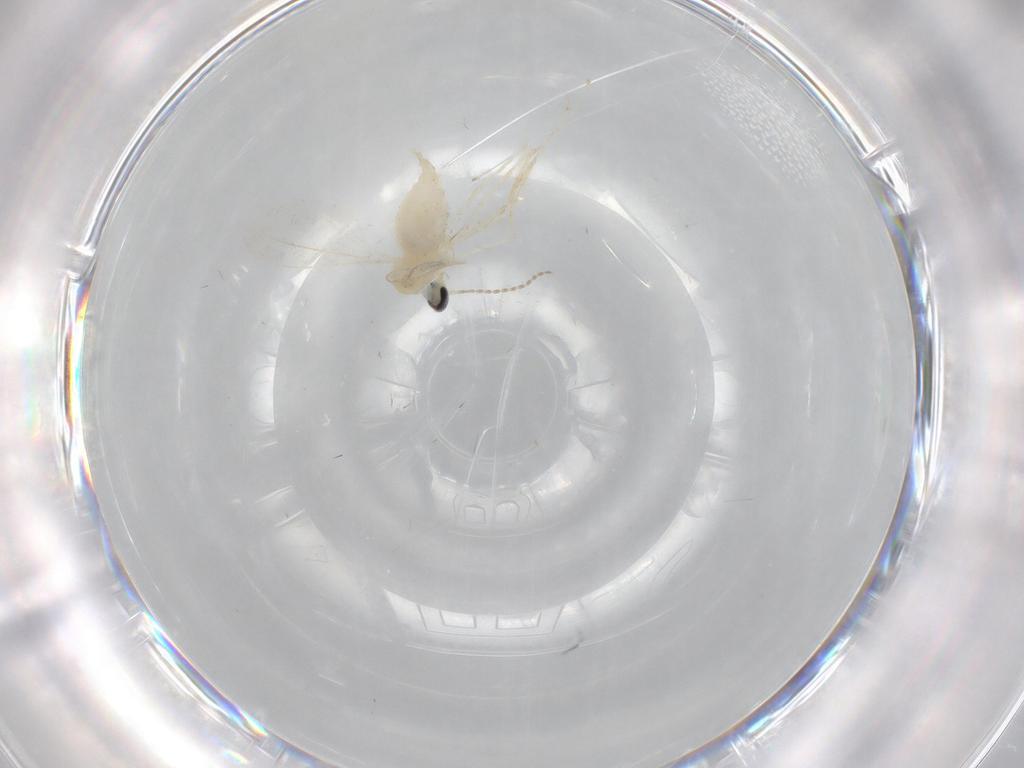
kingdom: Animalia
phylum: Arthropoda
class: Insecta
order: Diptera
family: Cecidomyiidae
